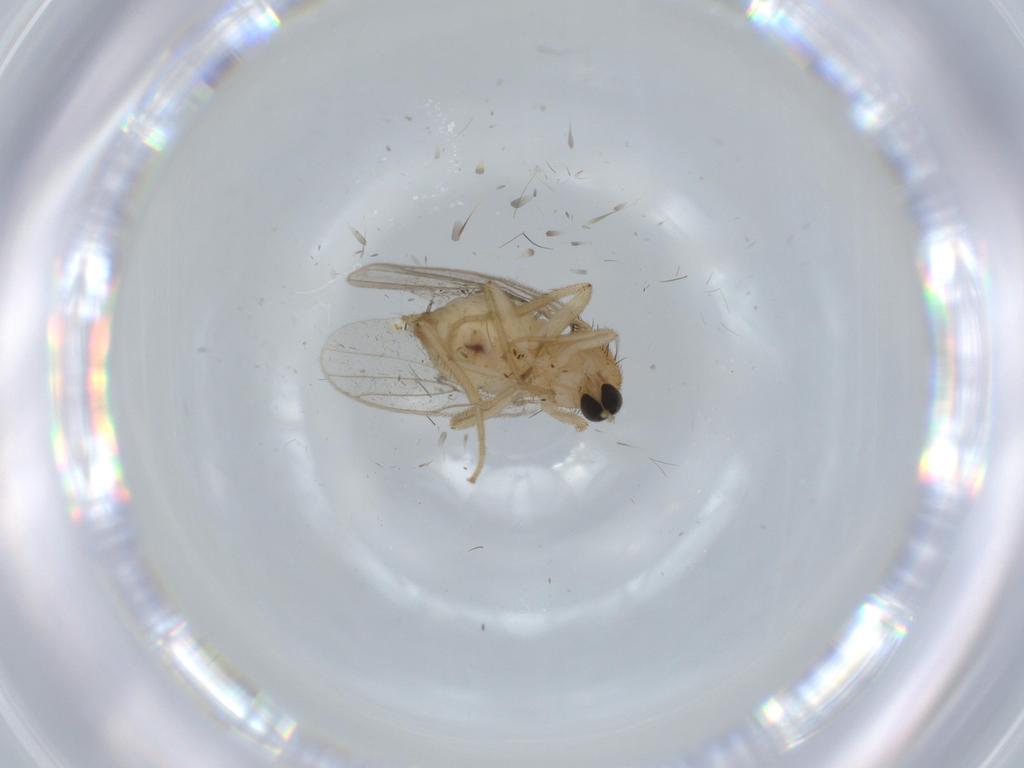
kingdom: Animalia
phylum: Arthropoda
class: Insecta
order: Diptera
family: Hybotidae
